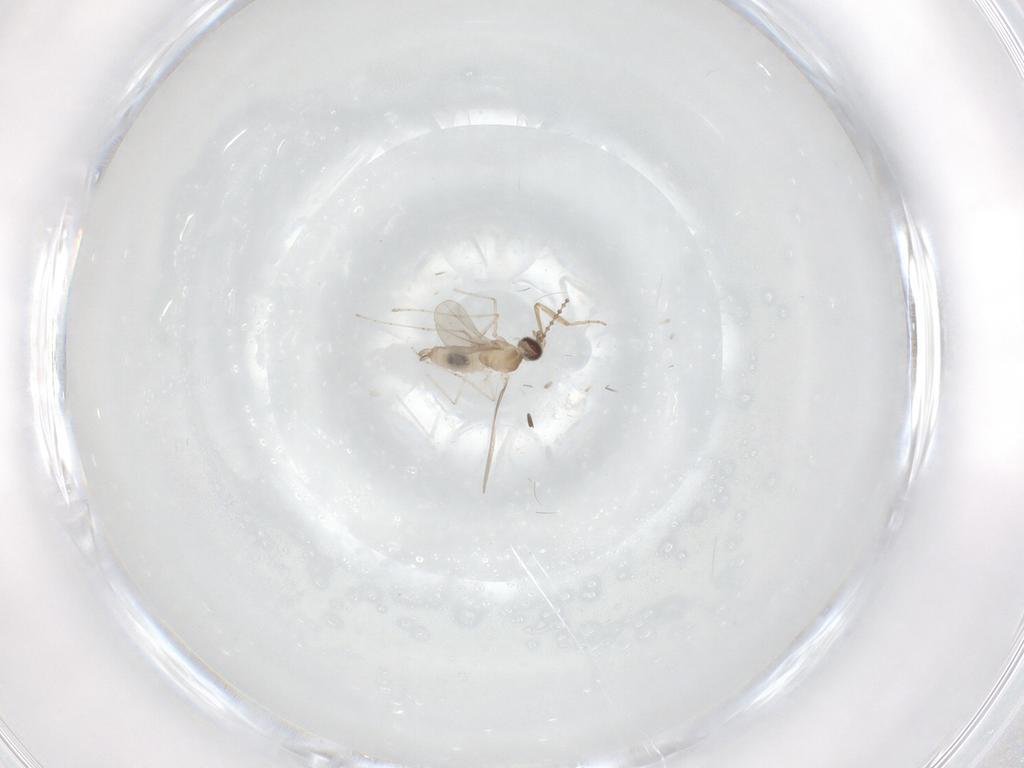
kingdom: Animalia
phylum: Arthropoda
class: Insecta
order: Diptera
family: Cecidomyiidae
